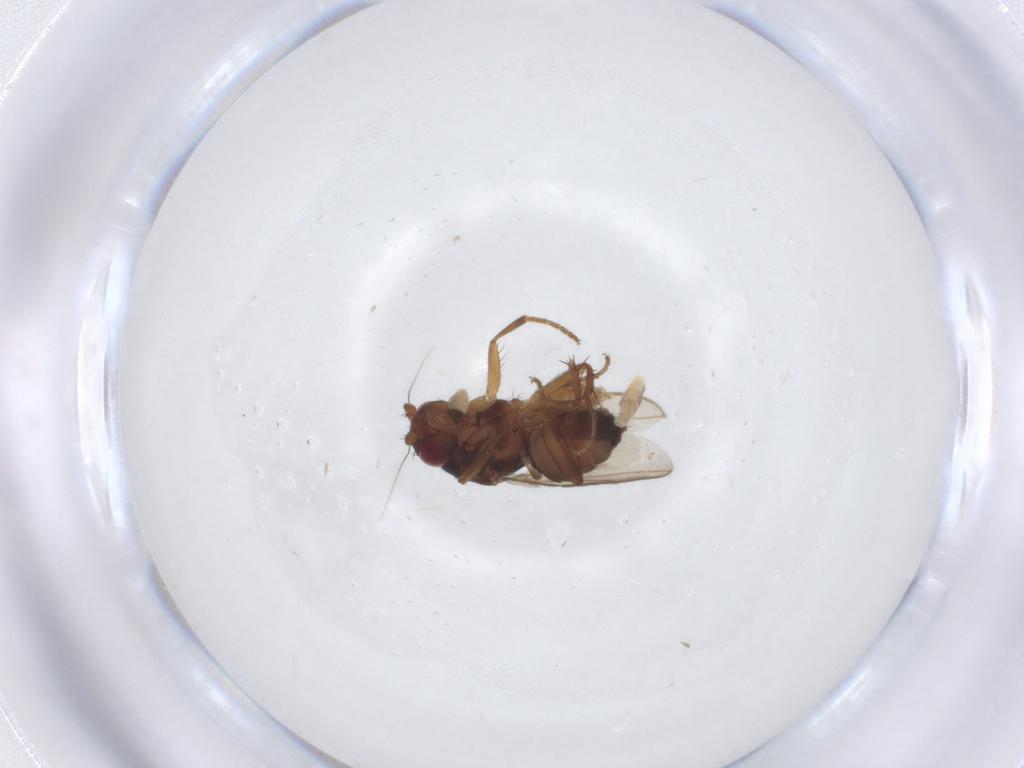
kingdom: Animalia
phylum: Arthropoda
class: Insecta
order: Diptera
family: Sphaeroceridae
